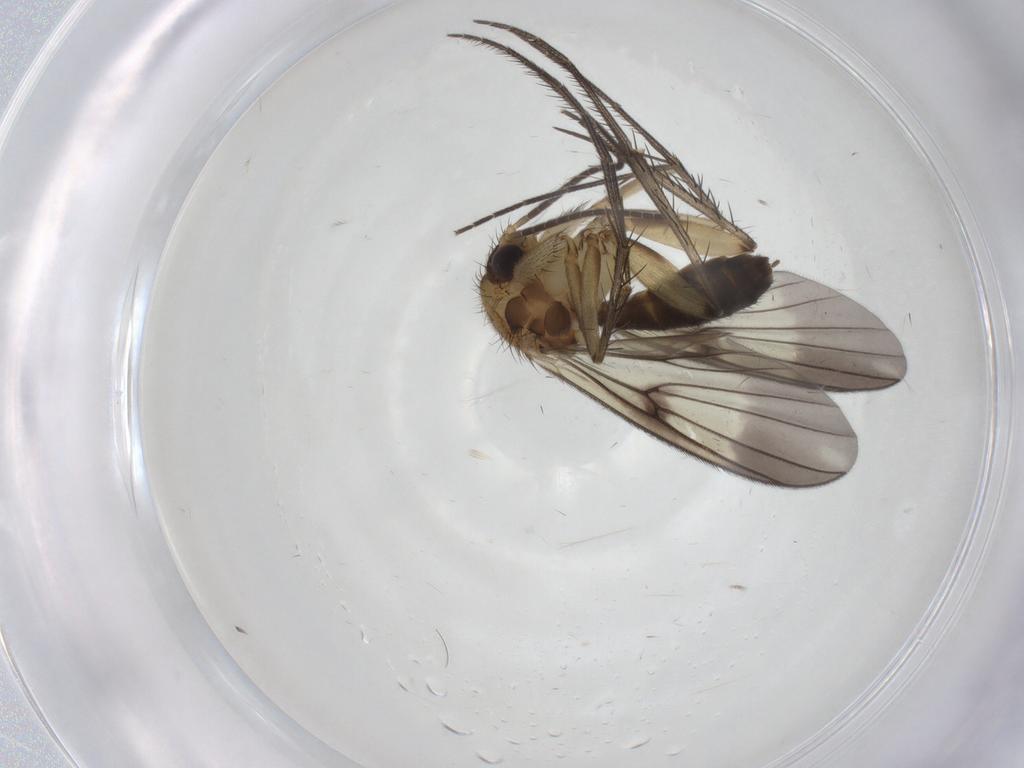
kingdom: Animalia
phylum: Arthropoda
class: Insecta
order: Diptera
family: Mycetophilidae
